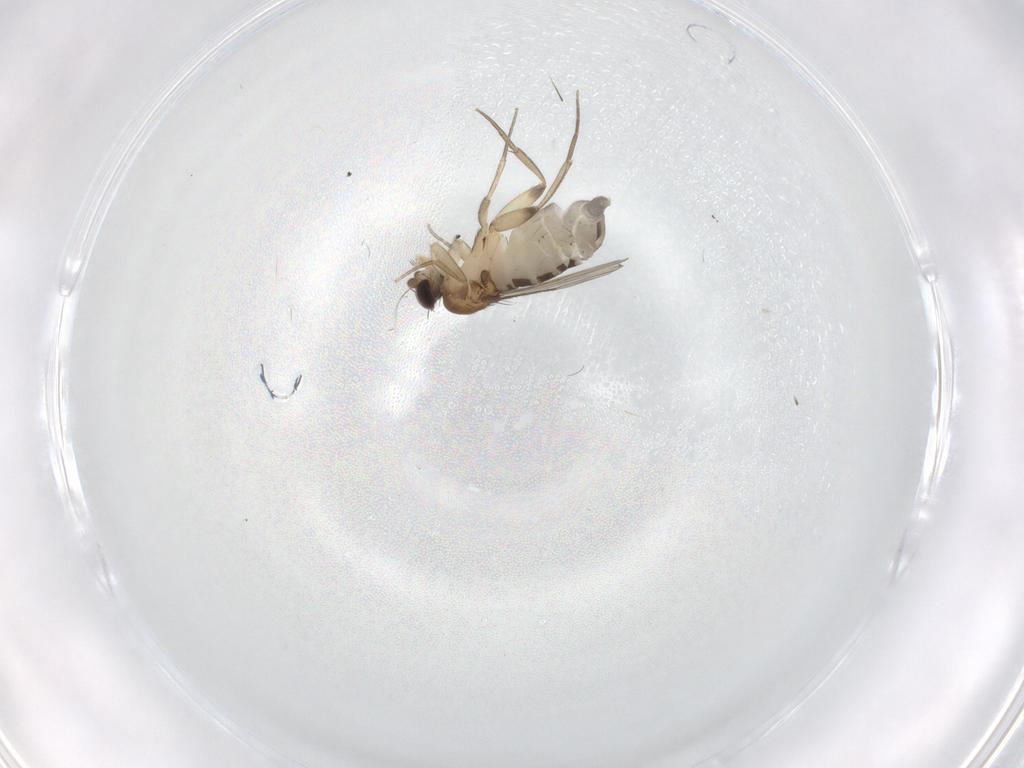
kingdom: Animalia
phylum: Arthropoda
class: Insecta
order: Diptera
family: Phoridae
